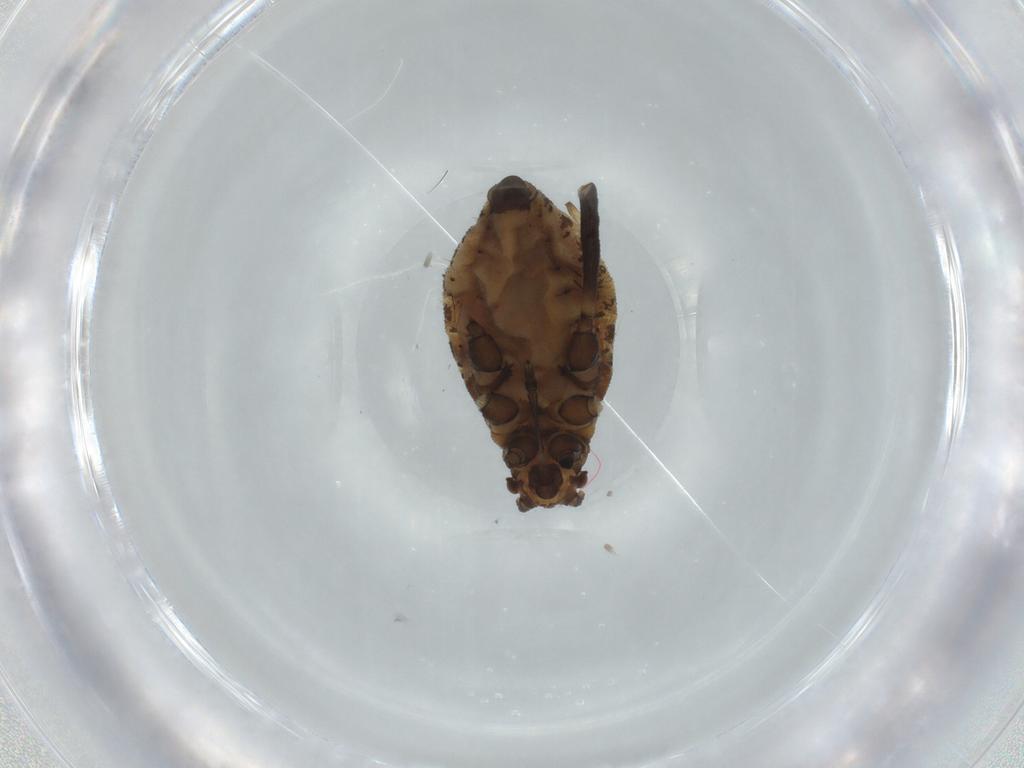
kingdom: Animalia
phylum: Arthropoda
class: Insecta
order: Hemiptera
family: Aphididae
